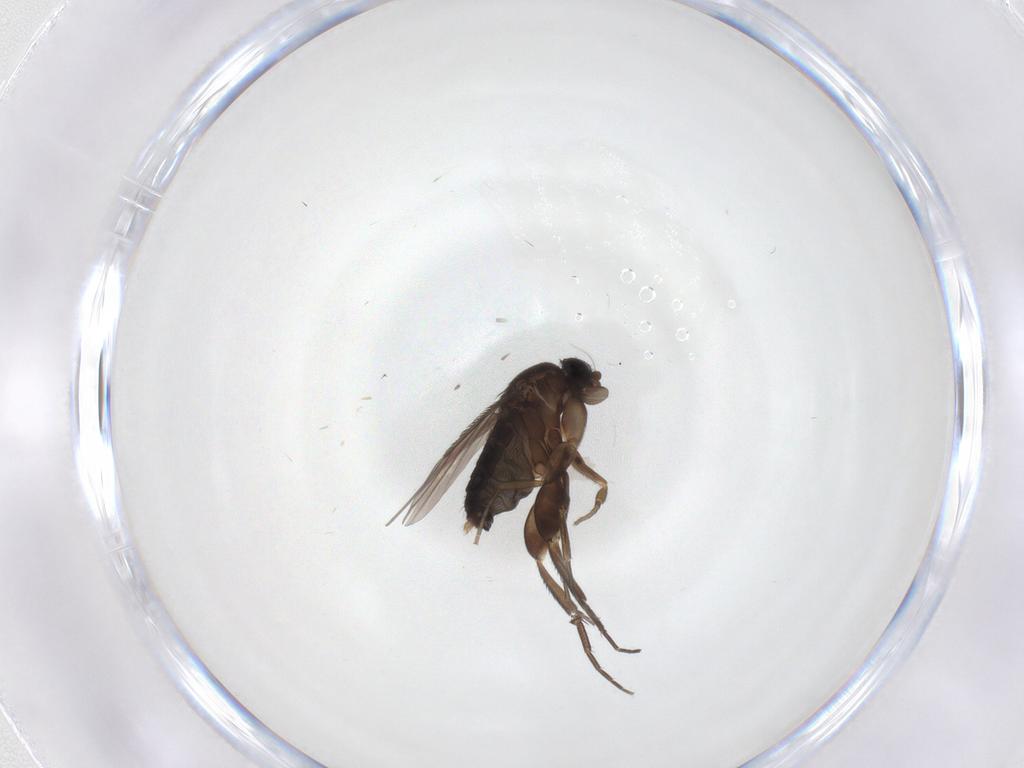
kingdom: Animalia
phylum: Arthropoda
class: Insecta
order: Diptera
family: Phoridae
